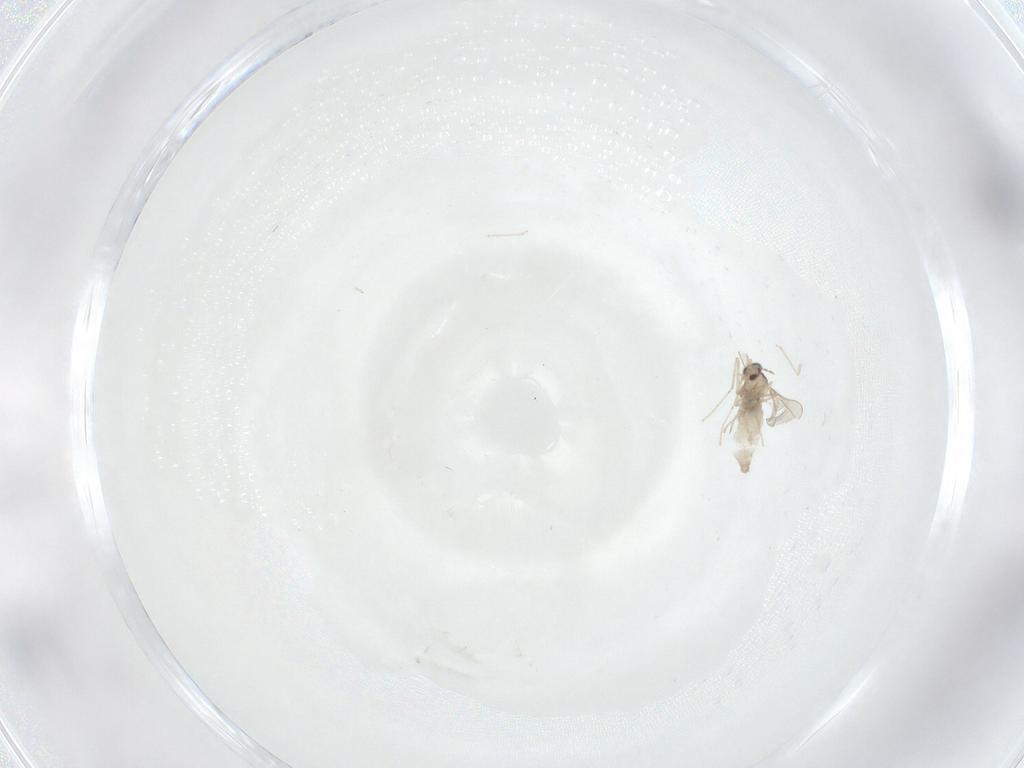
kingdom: Animalia
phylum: Arthropoda
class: Insecta
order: Diptera
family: Cecidomyiidae
